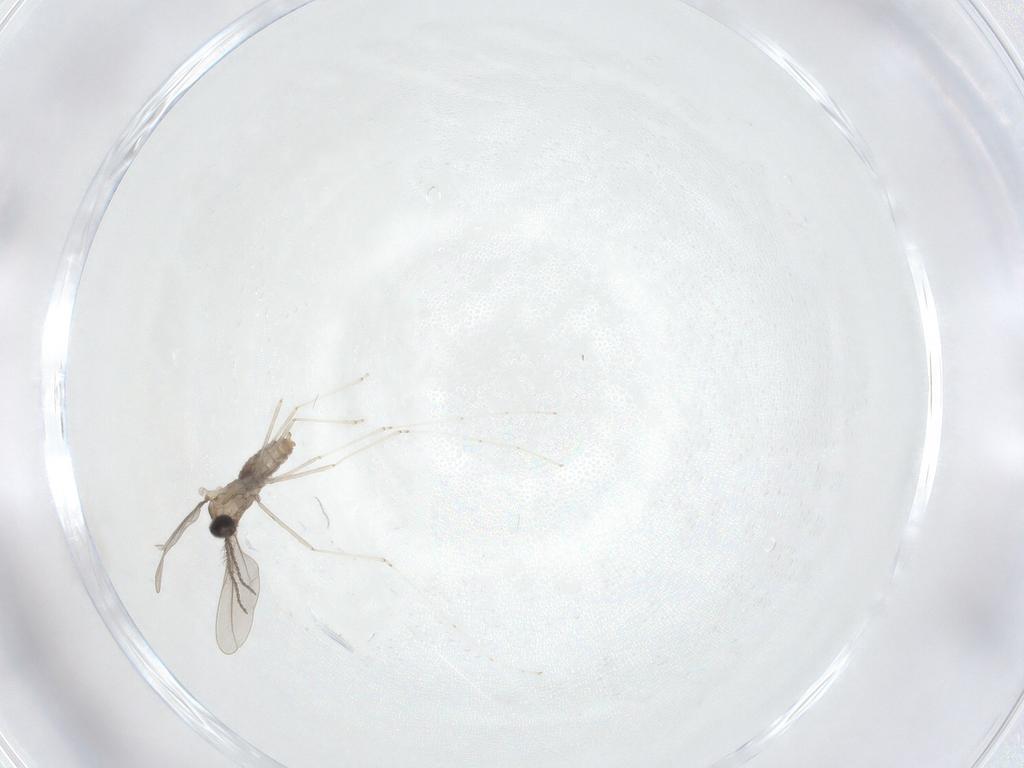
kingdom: Animalia
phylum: Arthropoda
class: Insecta
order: Diptera
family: Cecidomyiidae
